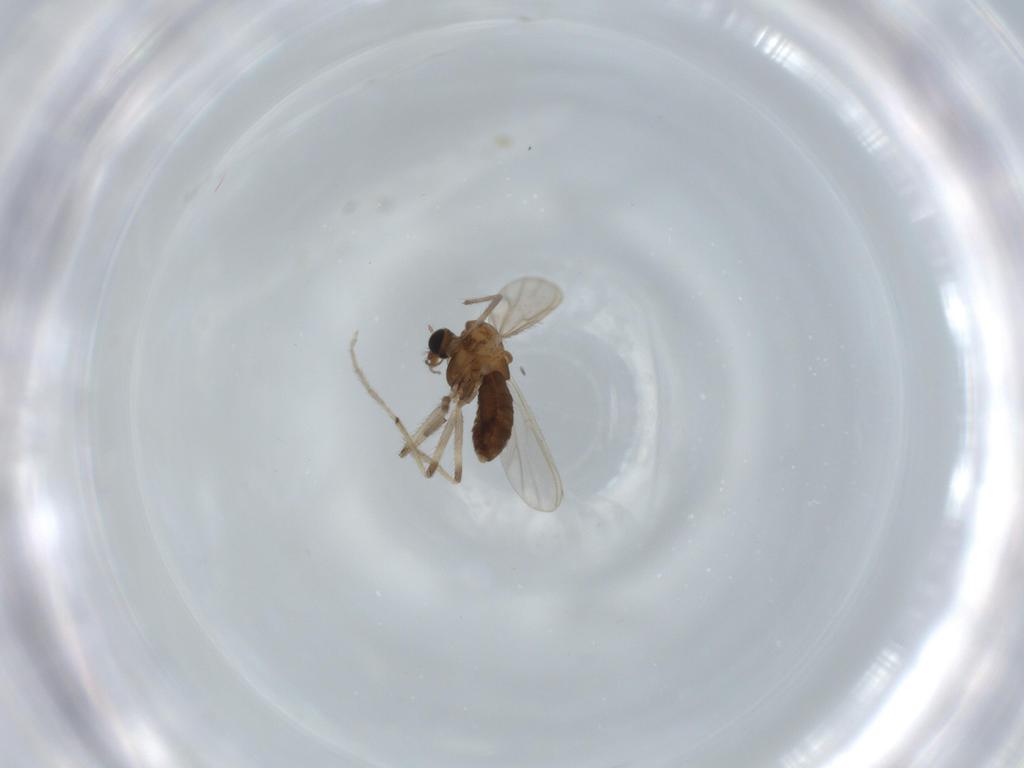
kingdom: Animalia
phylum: Arthropoda
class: Insecta
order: Diptera
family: Chironomidae
